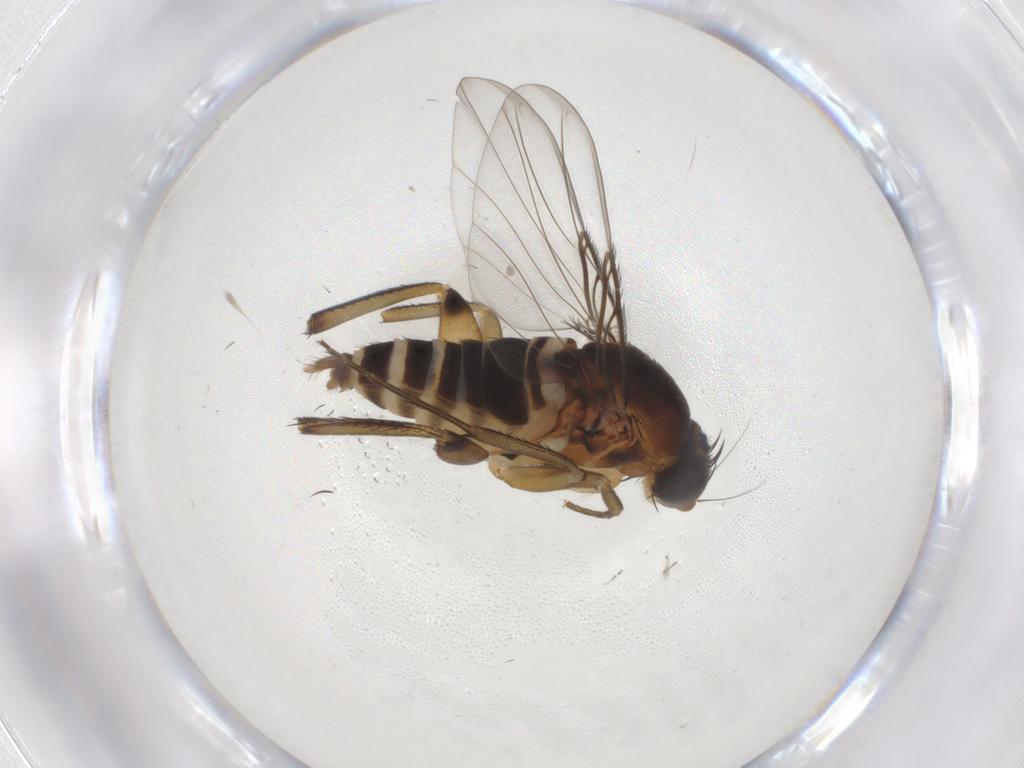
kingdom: Animalia
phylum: Arthropoda
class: Insecta
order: Diptera
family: Phoridae
